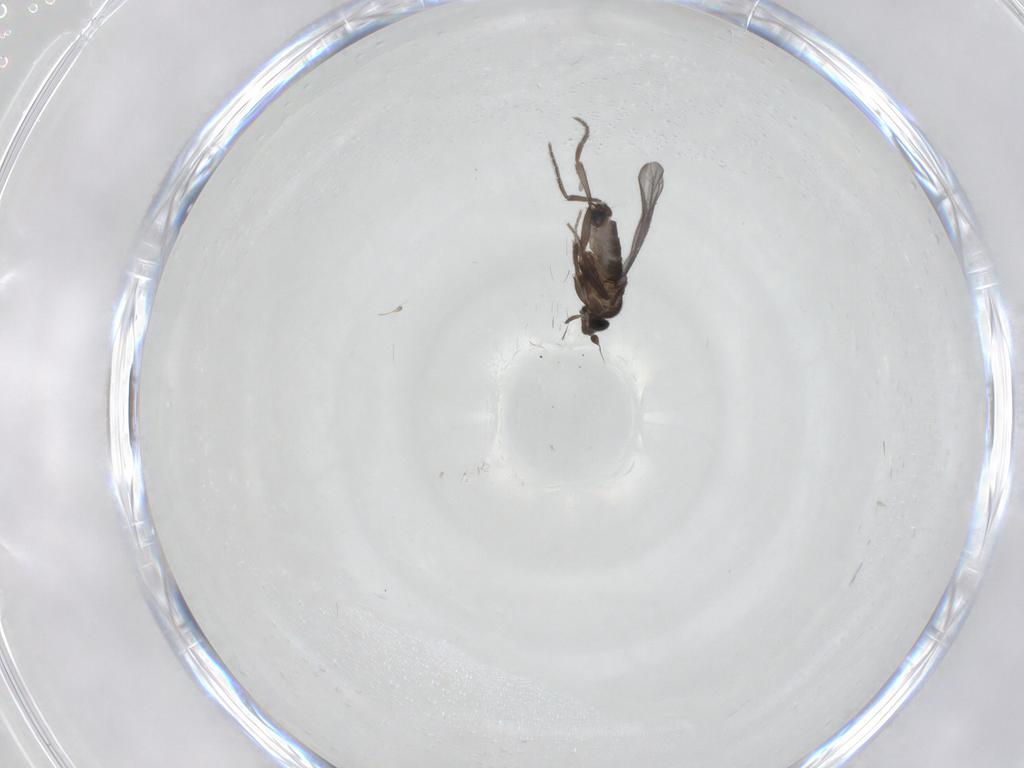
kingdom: Animalia
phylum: Arthropoda
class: Insecta
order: Diptera
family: Phoridae
